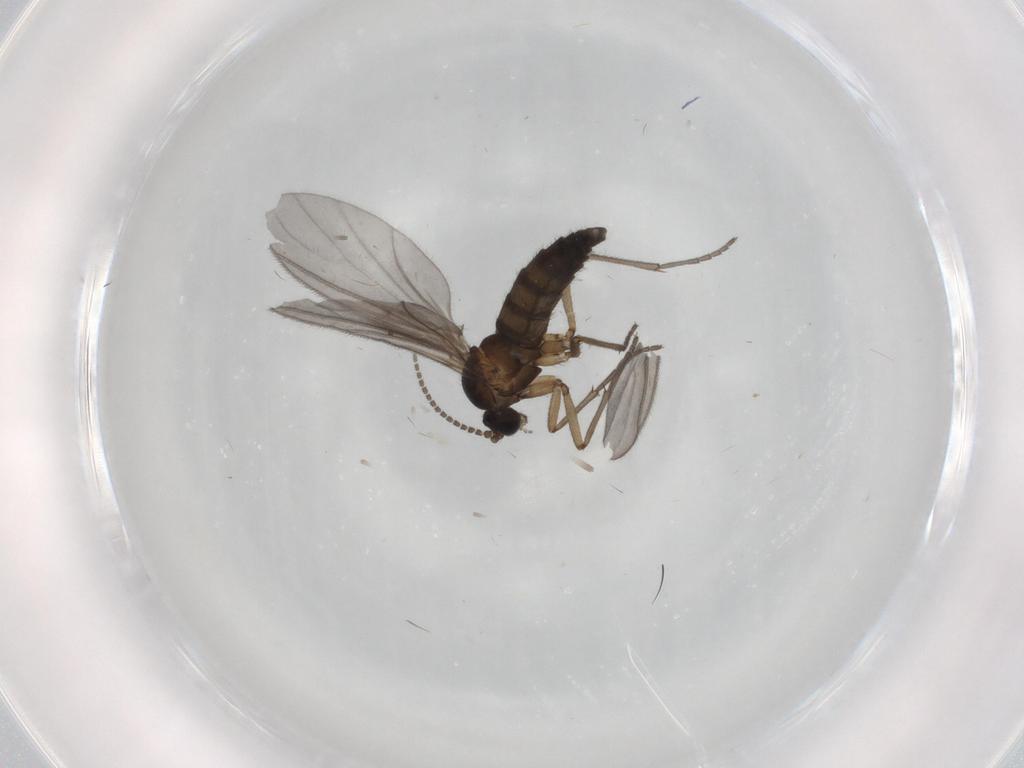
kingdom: Animalia
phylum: Arthropoda
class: Insecta
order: Diptera
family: Sciaridae
